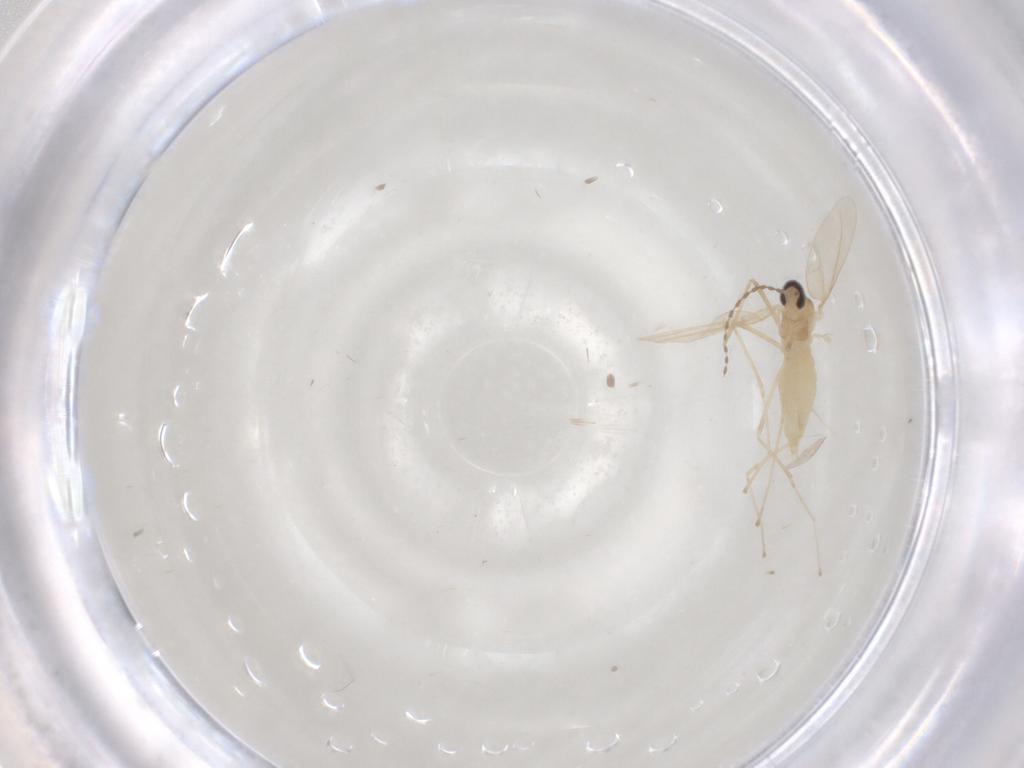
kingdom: Animalia
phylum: Arthropoda
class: Insecta
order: Diptera
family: Cecidomyiidae
